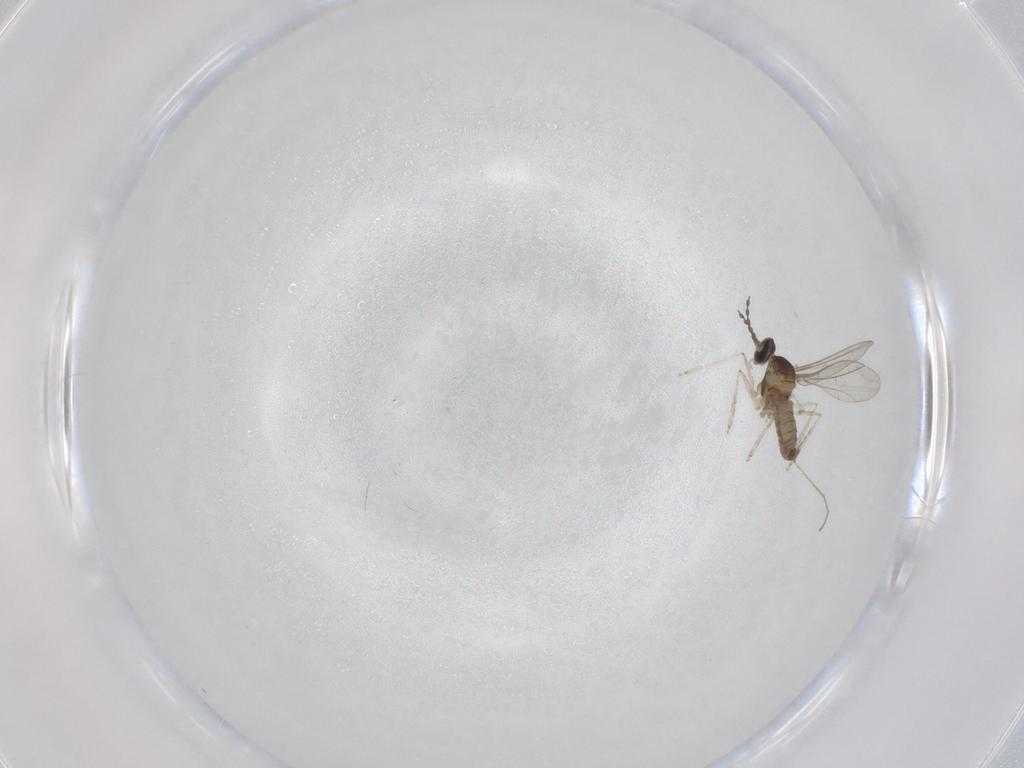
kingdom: Animalia
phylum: Arthropoda
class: Insecta
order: Diptera
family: Cecidomyiidae
